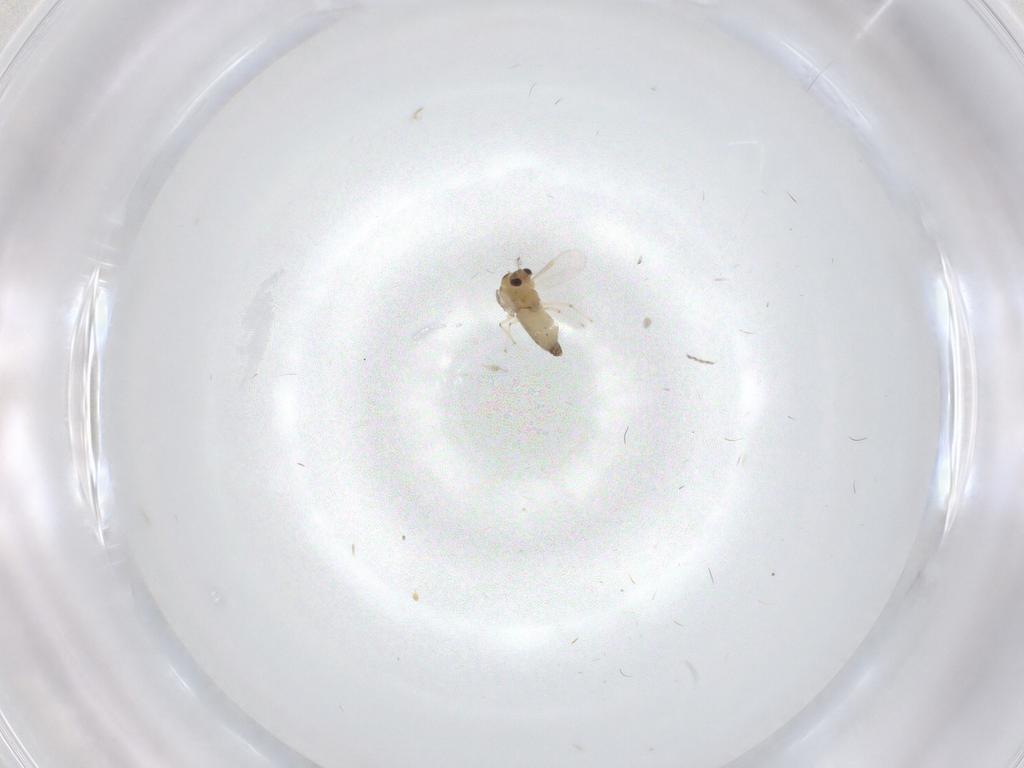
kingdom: Animalia
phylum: Arthropoda
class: Insecta
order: Diptera
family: Chironomidae
